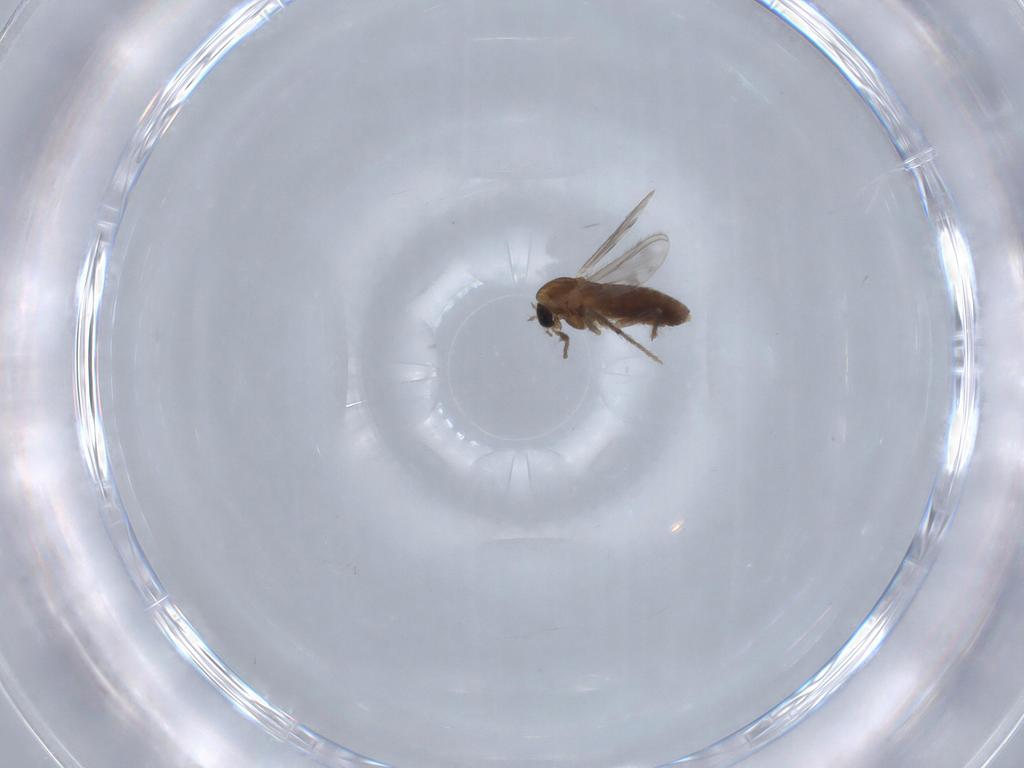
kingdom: Animalia
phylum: Arthropoda
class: Insecta
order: Diptera
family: Chironomidae
